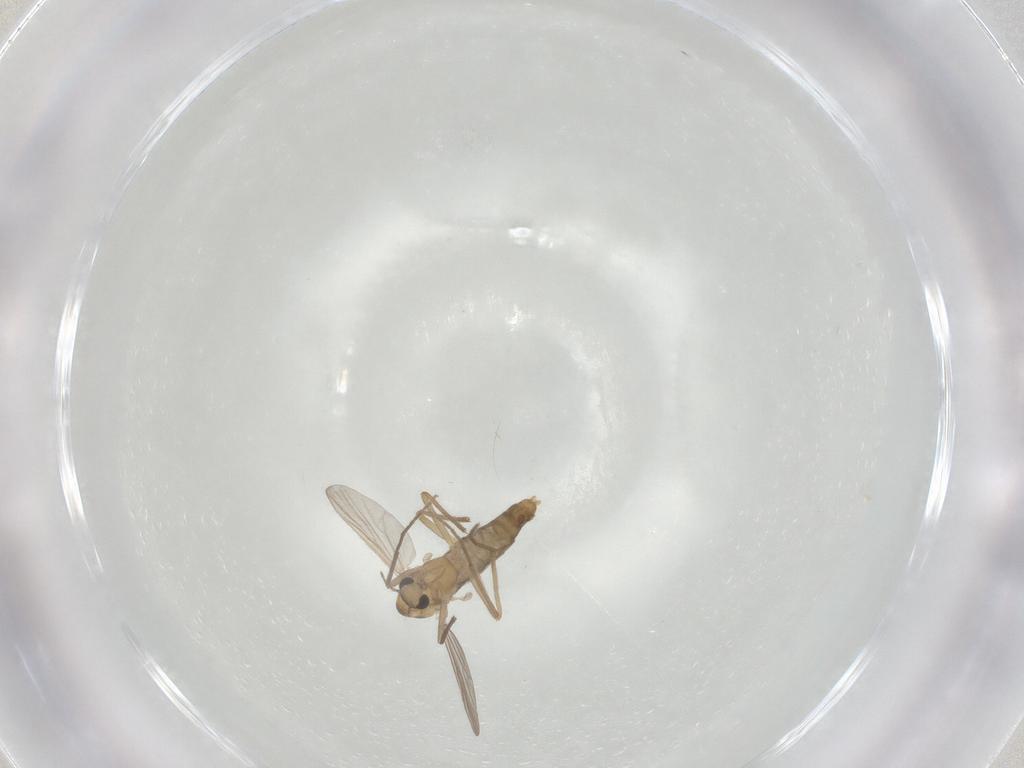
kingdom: Animalia
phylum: Arthropoda
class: Insecta
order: Diptera
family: Chironomidae
